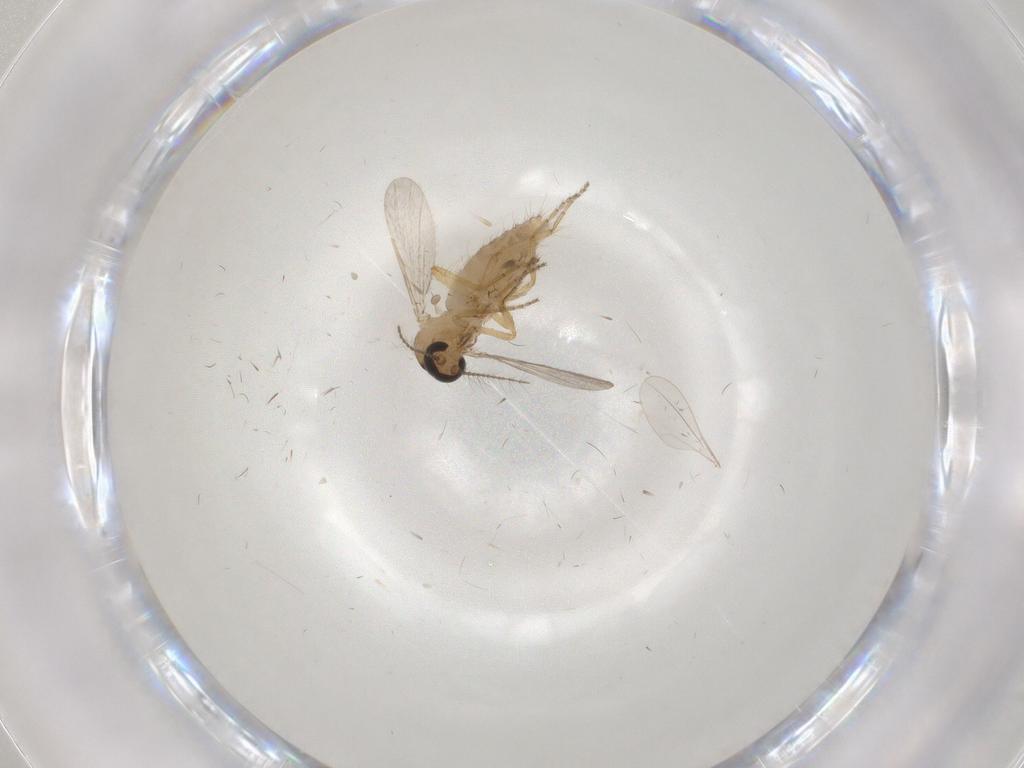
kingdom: Animalia
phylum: Arthropoda
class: Insecta
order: Diptera
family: Ceratopogonidae
